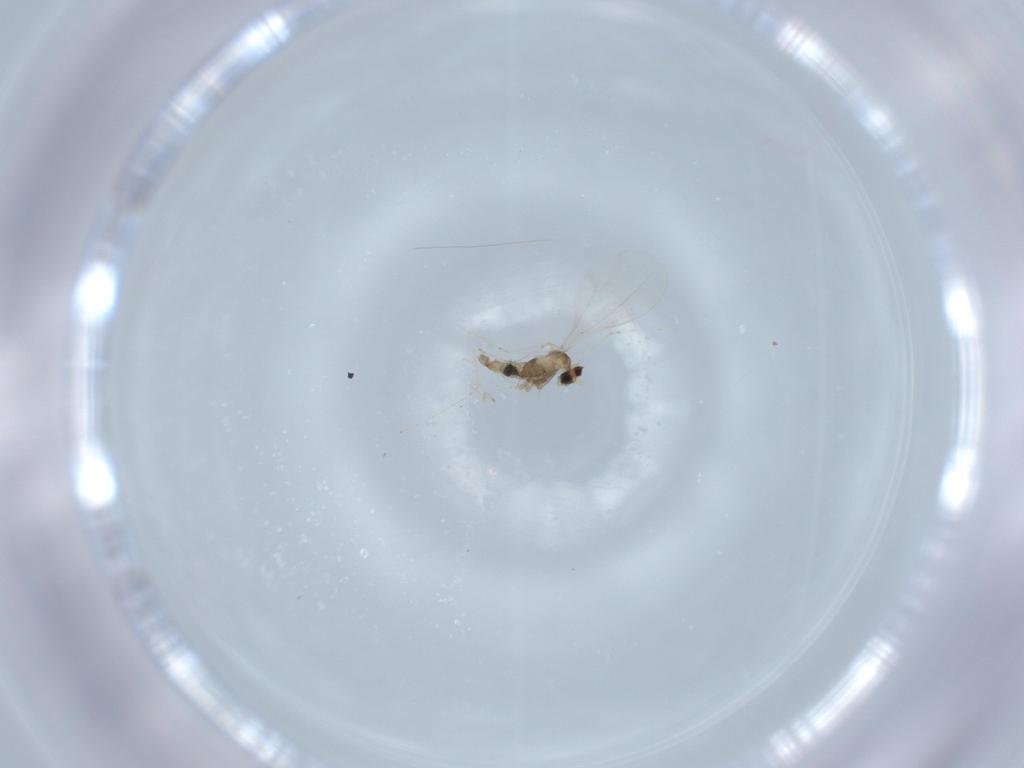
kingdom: Animalia
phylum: Arthropoda
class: Insecta
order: Diptera
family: Cecidomyiidae
